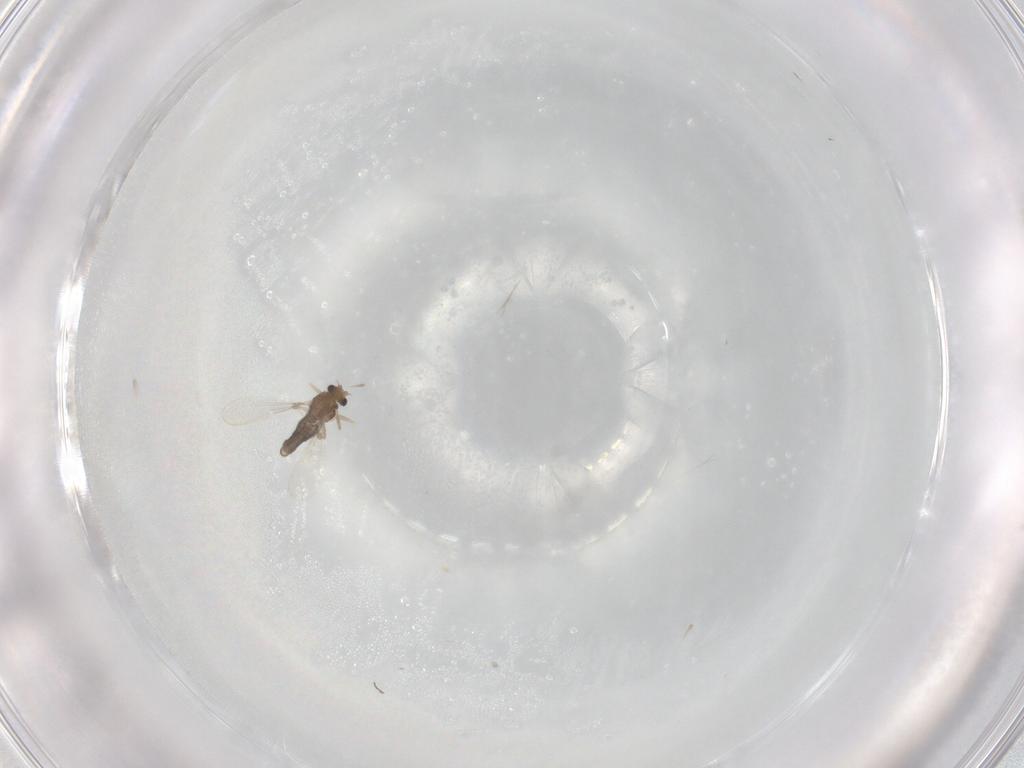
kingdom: Animalia
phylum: Arthropoda
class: Insecta
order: Diptera
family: Chironomidae
